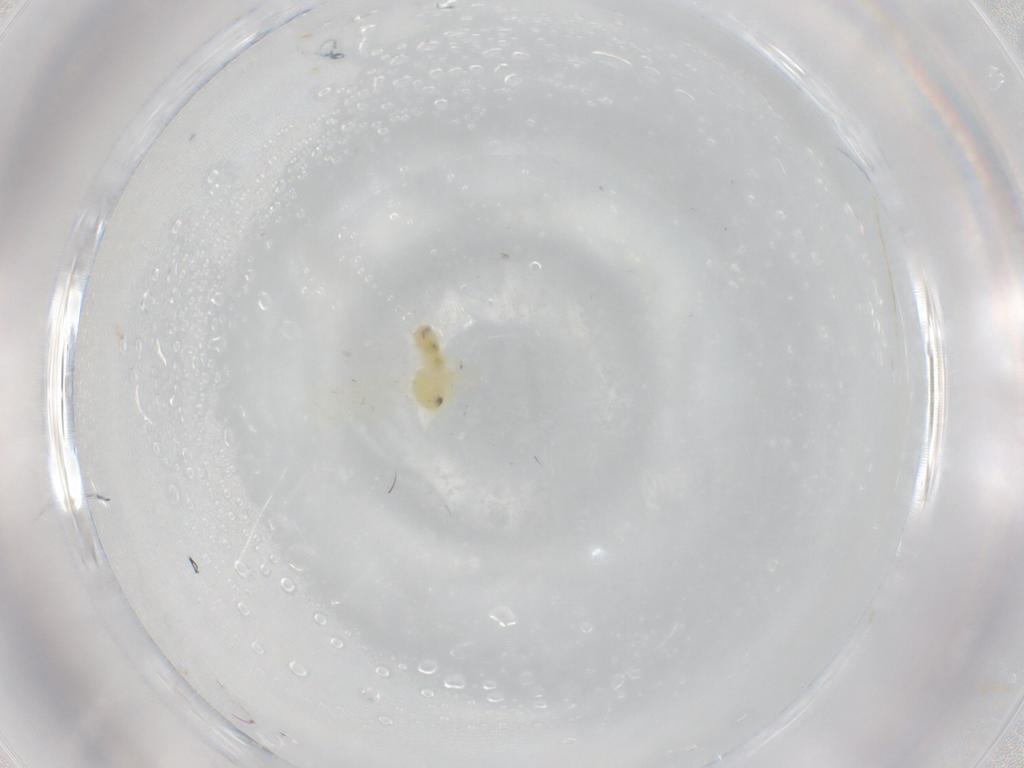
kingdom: Animalia
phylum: Arthropoda
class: Insecta
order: Hemiptera
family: Aleyrodidae
